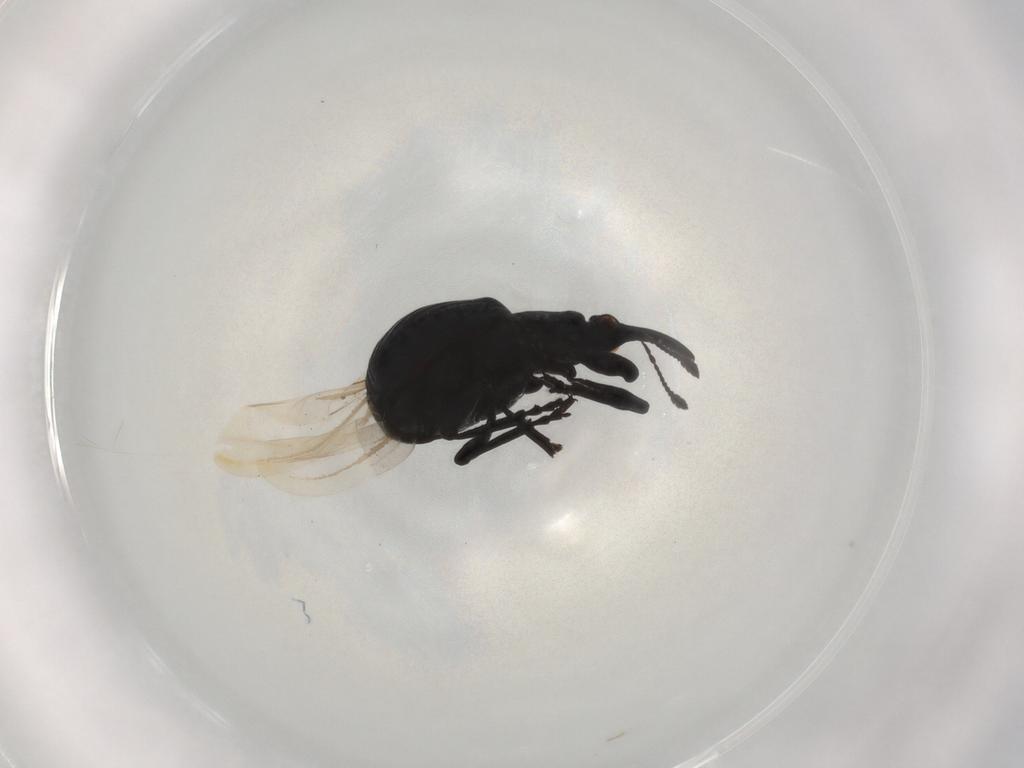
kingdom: Animalia
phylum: Arthropoda
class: Insecta
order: Coleoptera
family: Brentidae
